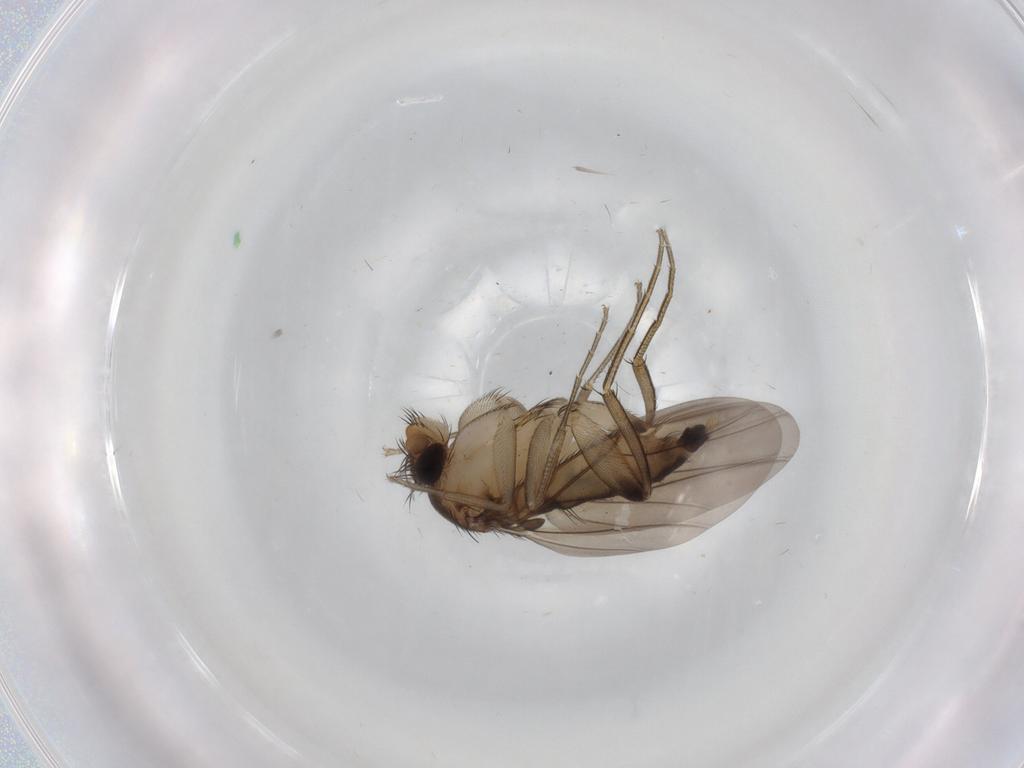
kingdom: Animalia
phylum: Arthropoda
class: Insecta
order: Diptera
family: Phoridae
